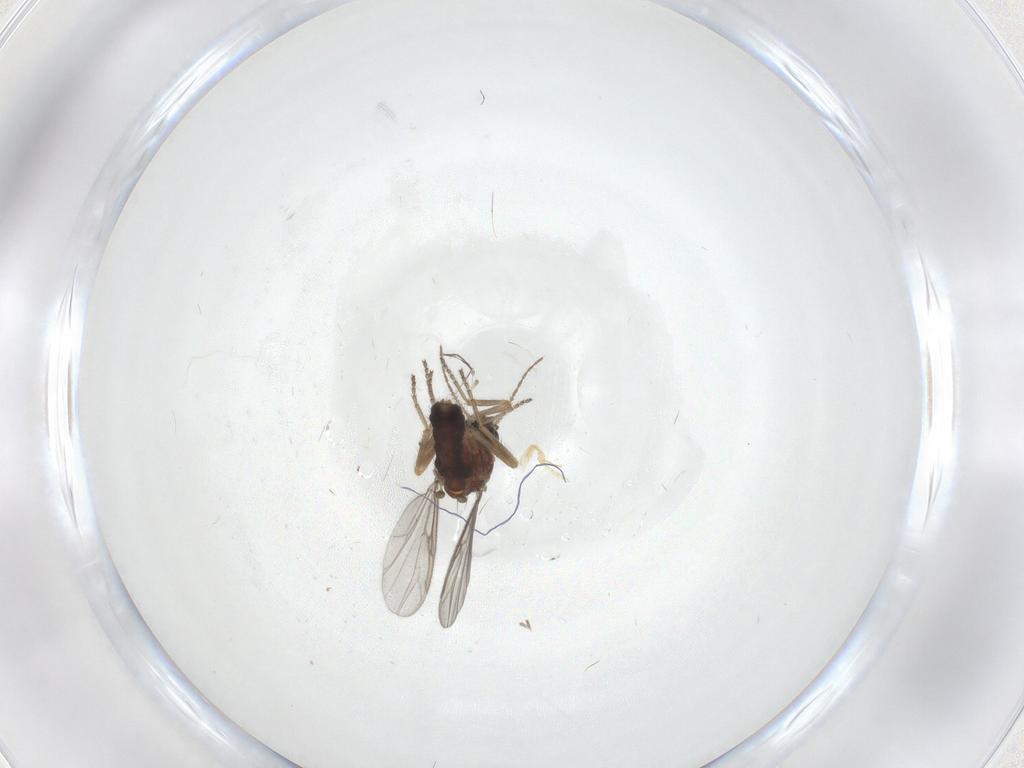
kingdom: Animalia
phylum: Arthropoda
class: Insecta
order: Diptera
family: Ceratopogonidae
